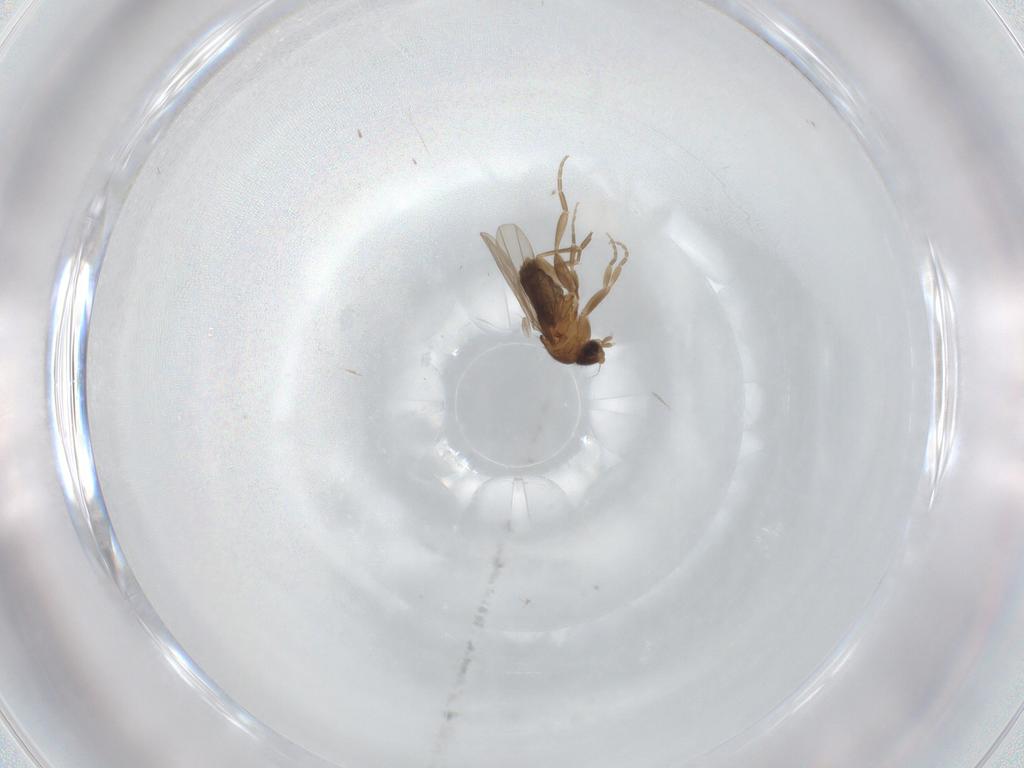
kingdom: Animalia
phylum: Arthropoda
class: Insecta
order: Diptera
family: Phoridae
